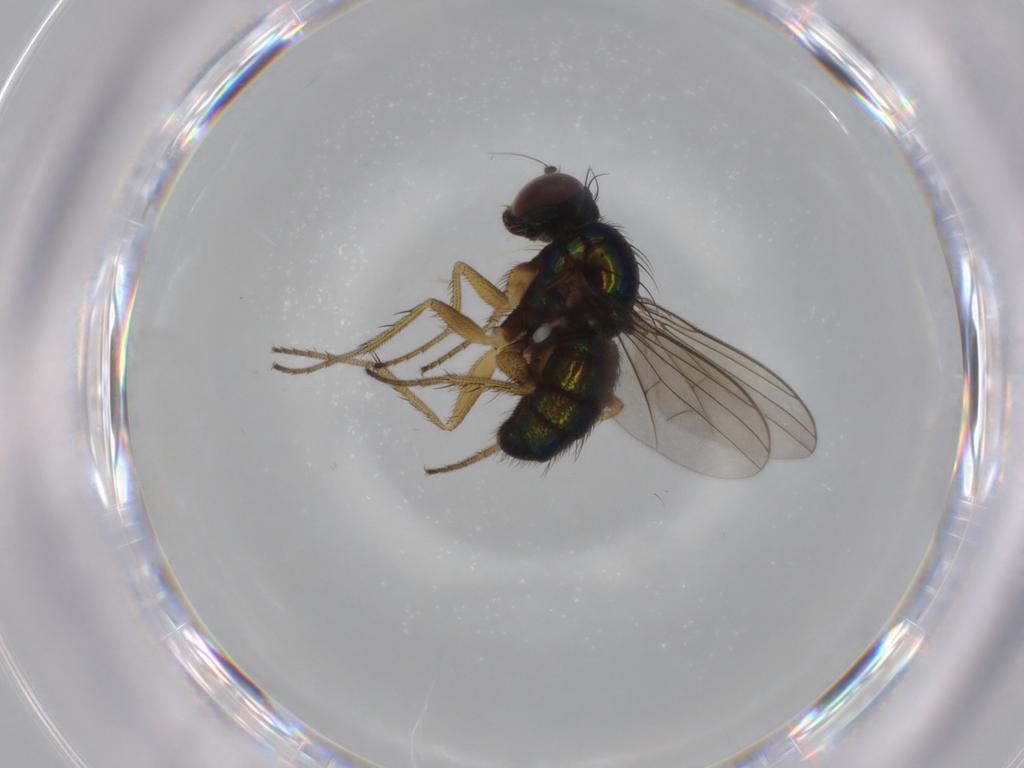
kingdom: Animalia
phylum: Arthropoda
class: Insecta
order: Diptera
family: Dolichopodidae
